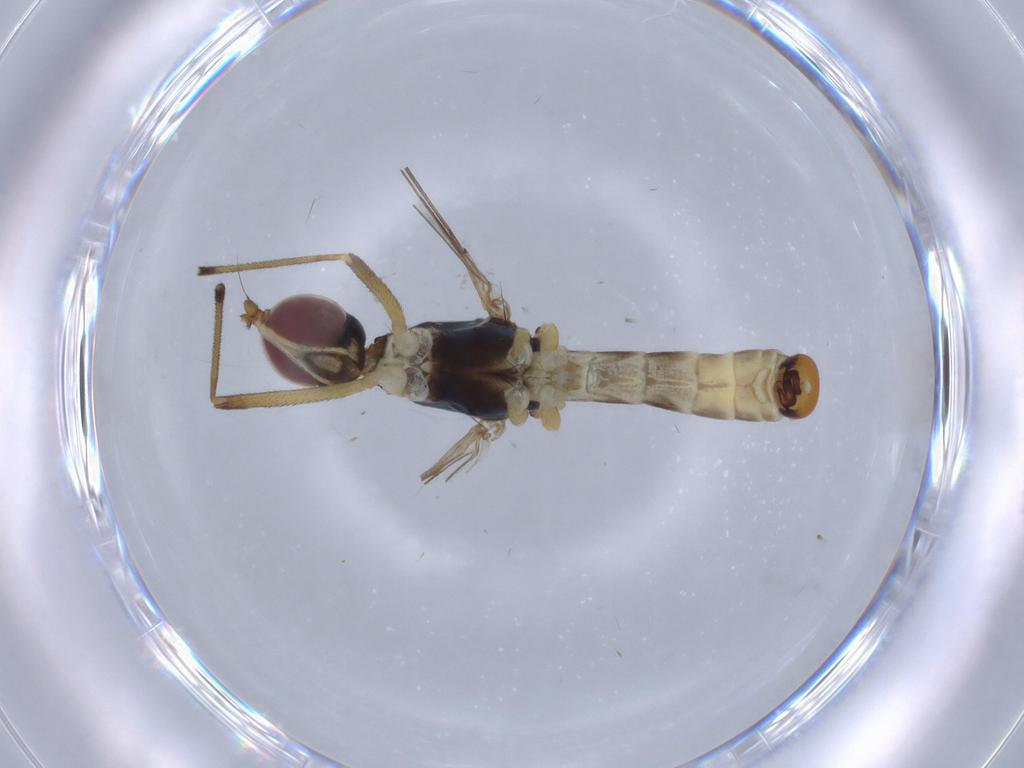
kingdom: Animalia
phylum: Arthropoda
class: Insecta
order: Diptera
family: Micropezidae
